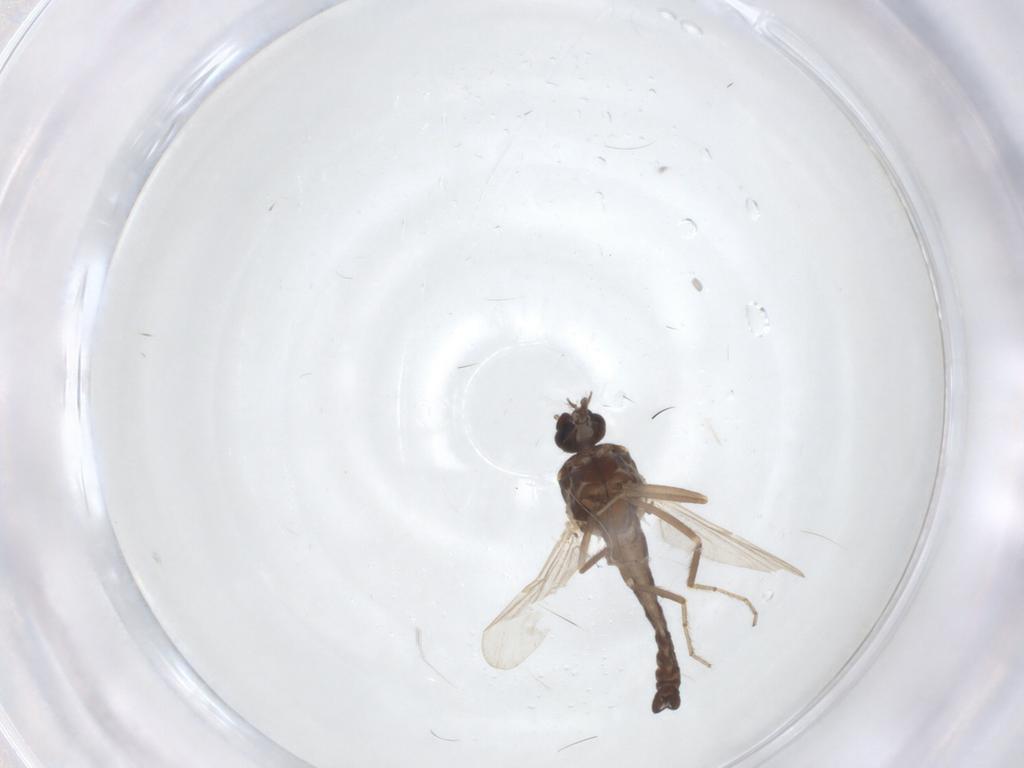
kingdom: Animalia
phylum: Arthropoda
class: Insecta
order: Diptera
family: Ceratopogonidae
